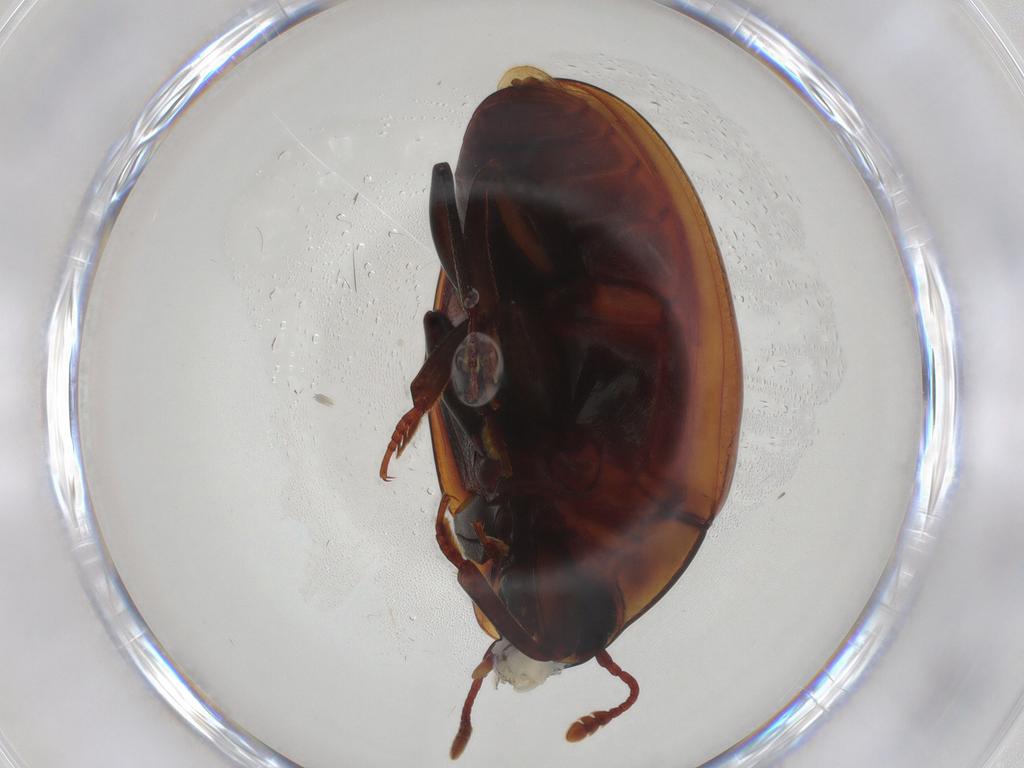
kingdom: Animalia
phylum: Arthropoda
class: Insecta
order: Coleoptera
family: Zopheridae
